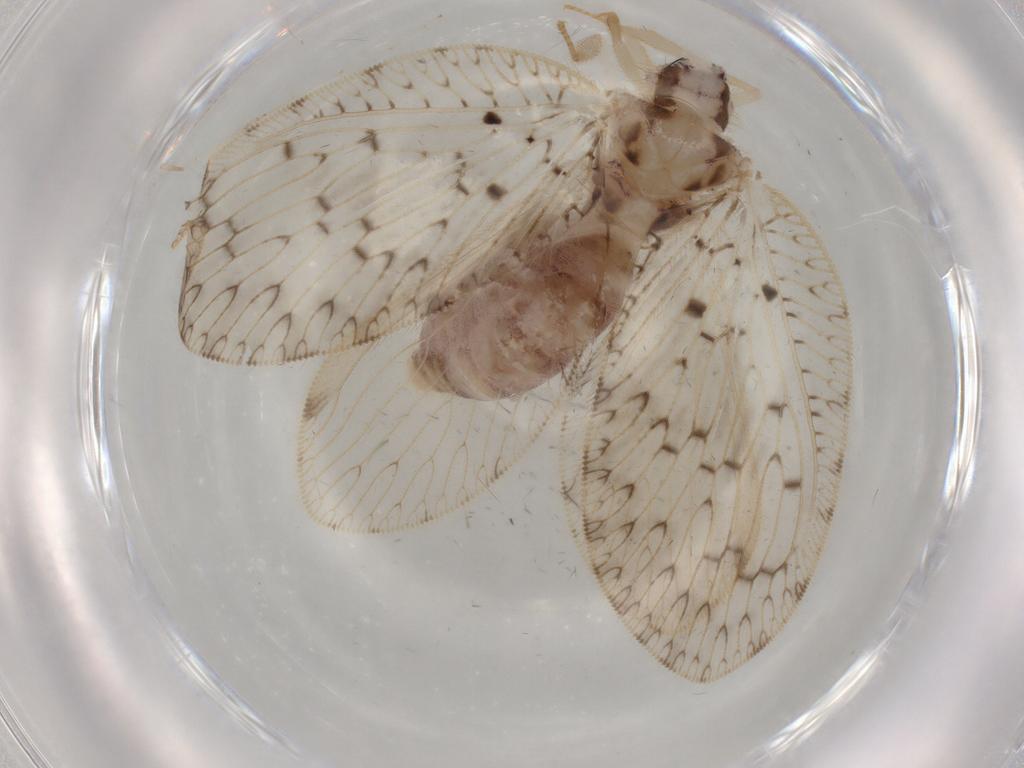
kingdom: Animalia
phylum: Arthropoda
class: Insecta
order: Neuroptera
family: Hemerobiidae
